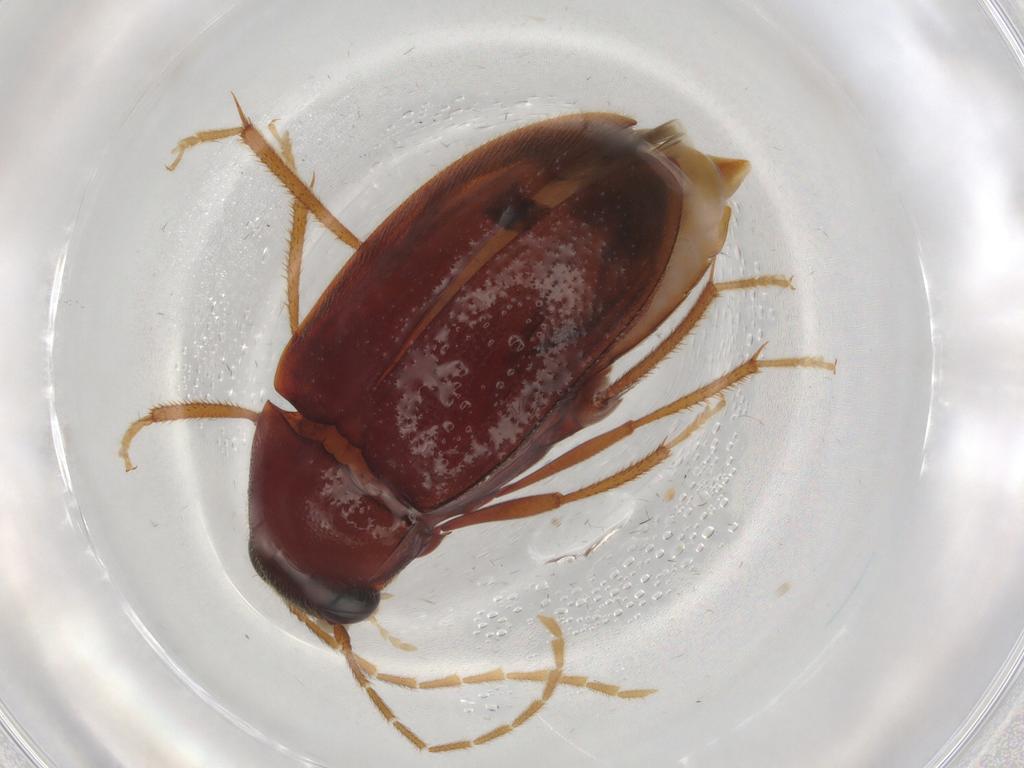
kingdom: Animalia
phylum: Arthropoda
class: Insecta
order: Coleoptera
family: Ptilodactylidae
